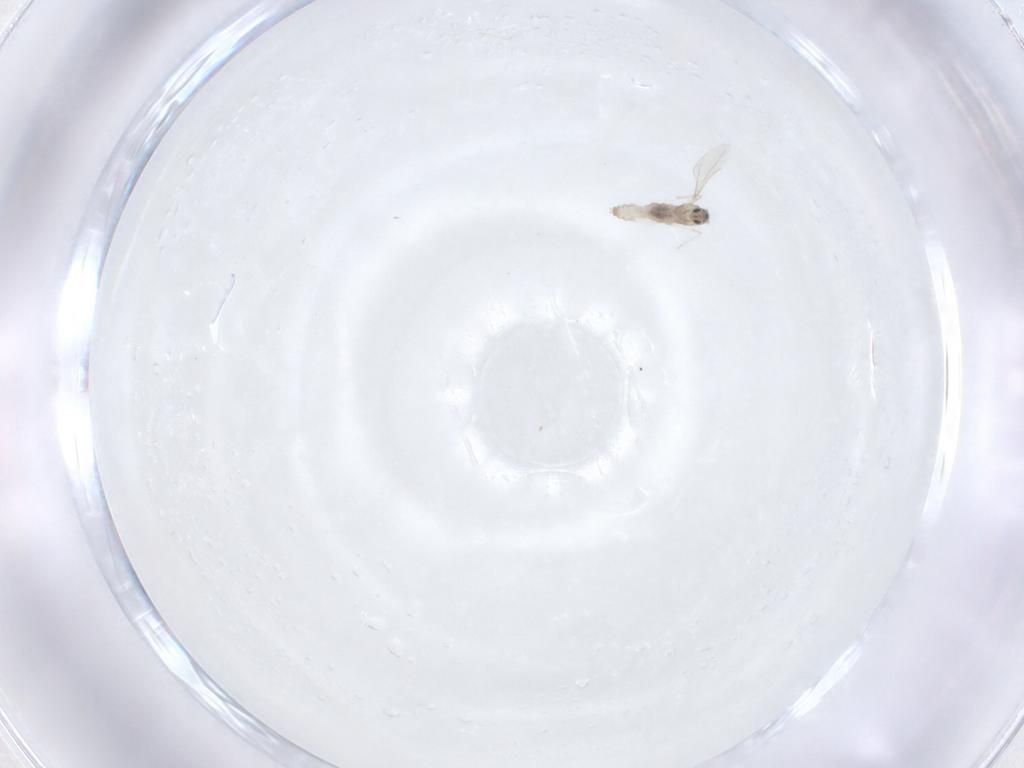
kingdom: Animalia
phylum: Arthropoda
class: Insecta
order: Diptera
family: Cecidomyiidae
